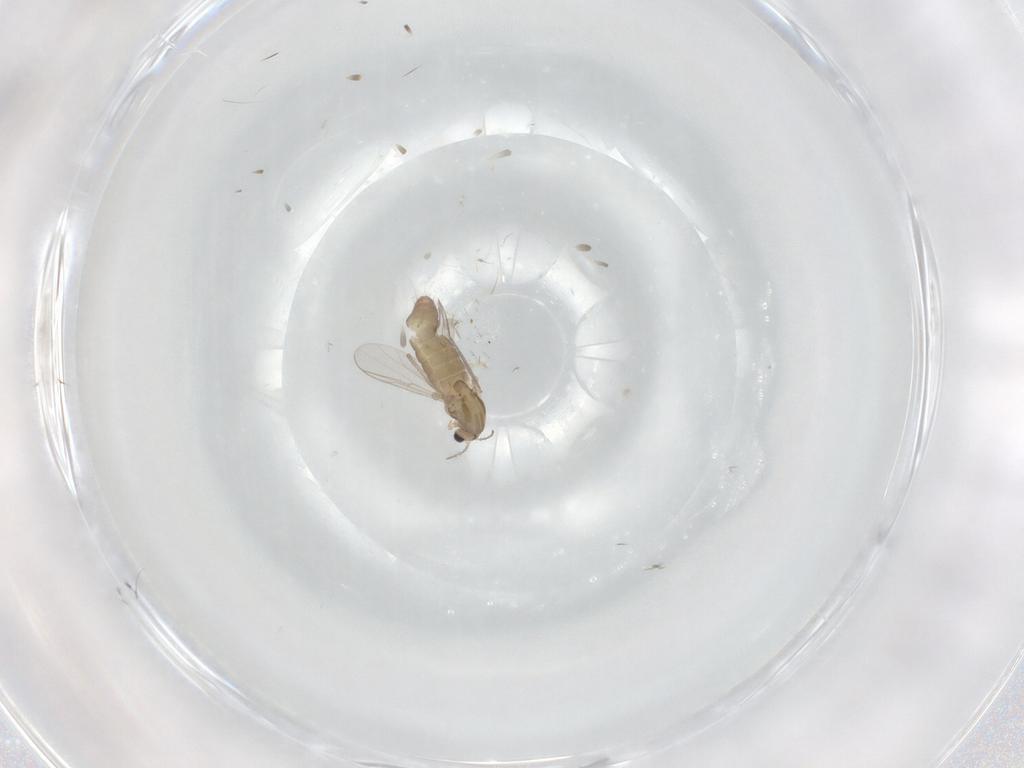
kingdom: Animalia
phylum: Arthropoda
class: Insecta
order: Diptera
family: Chironomidae
